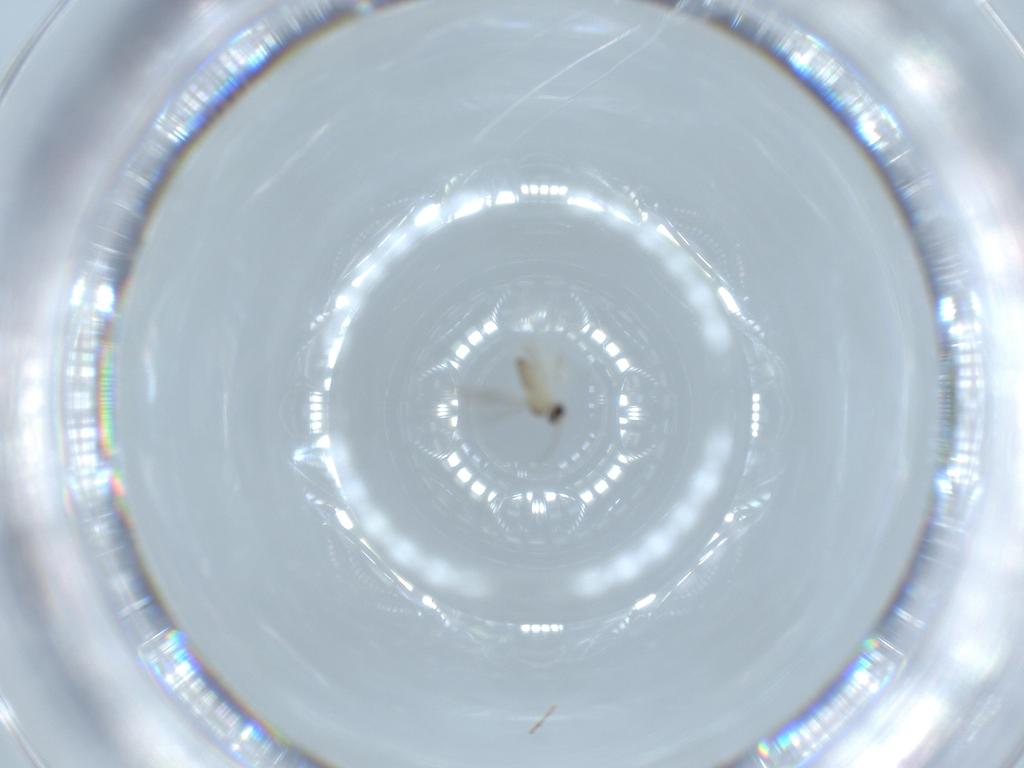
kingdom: Animalia
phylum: Arthropoda
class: Insecta
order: Diptera
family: Cecidomyiidae
